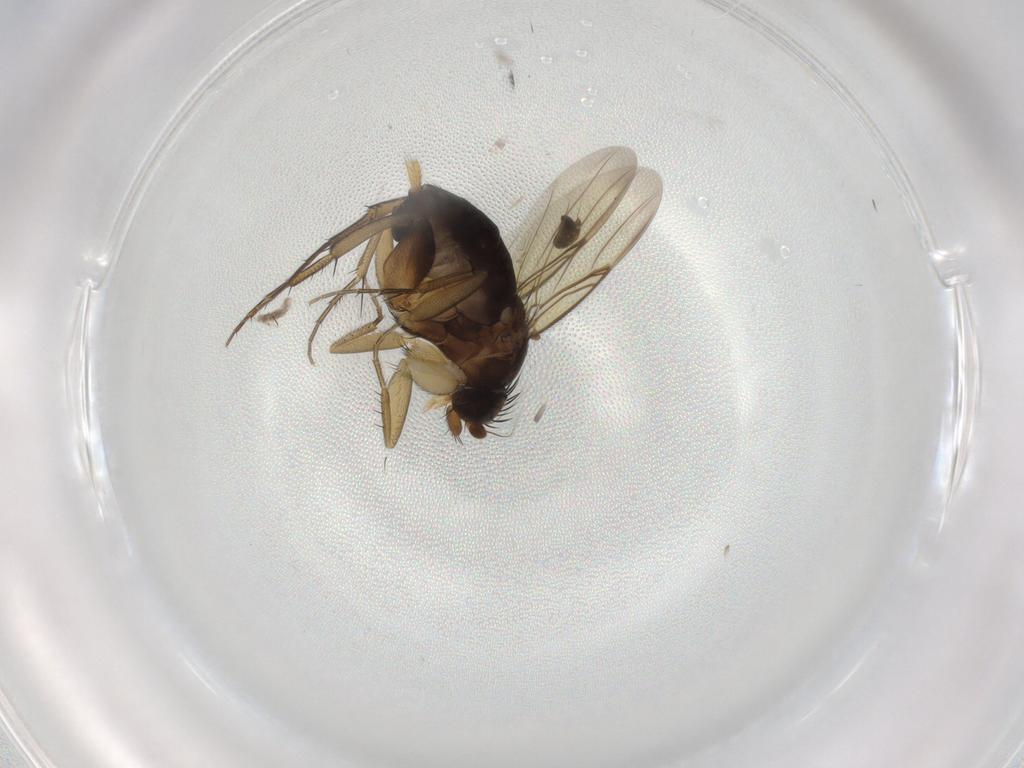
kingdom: Animalia
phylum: Arthropoda
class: Insecta
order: Diptera
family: Phoridae
